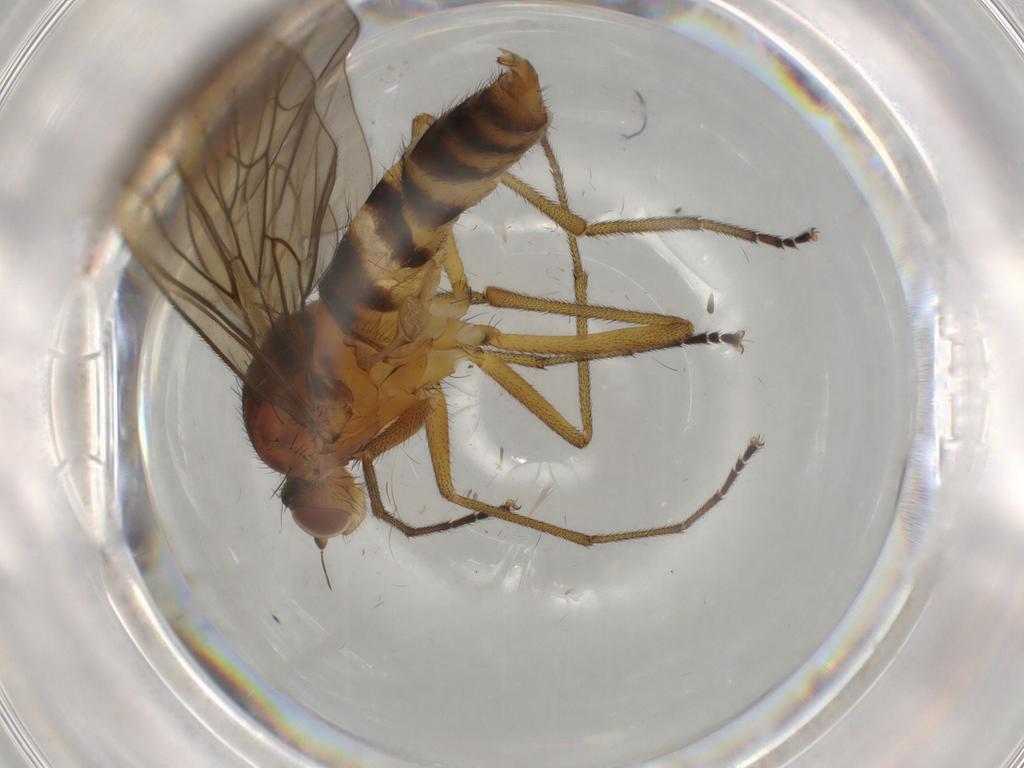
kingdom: Animalia
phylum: Arthropoda
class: Insecta
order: Diptera
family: Brachystomatidae
